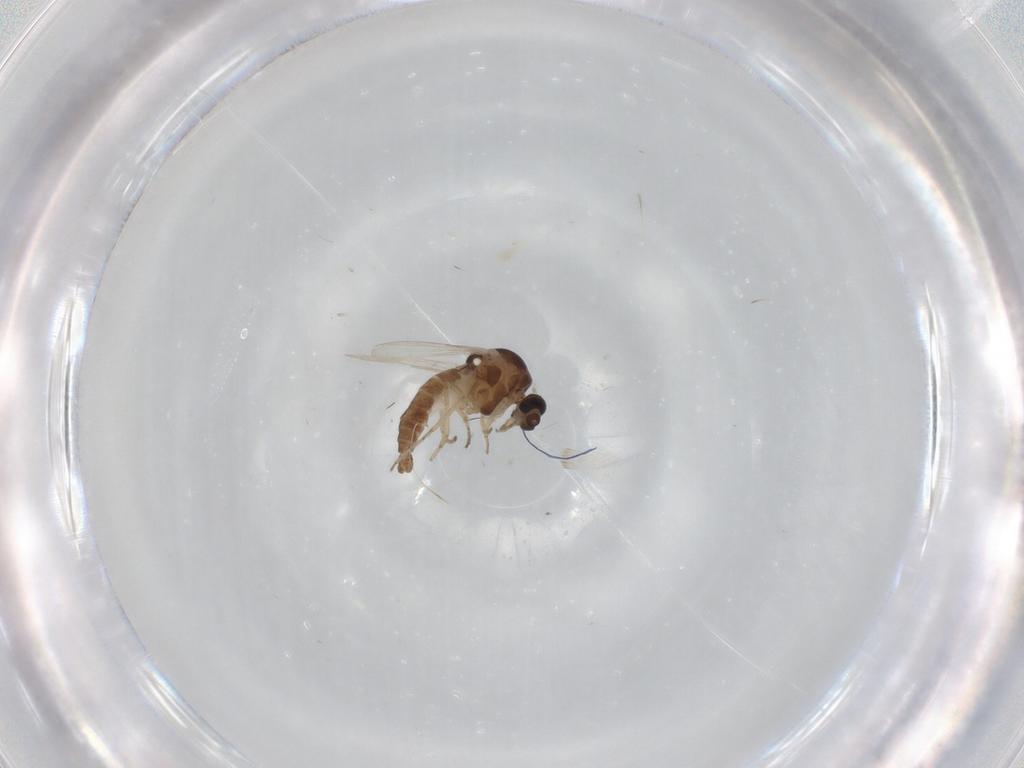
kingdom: Animalia
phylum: Arthropoda
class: Insecta
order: Diptera
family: Ceratopogonidae
